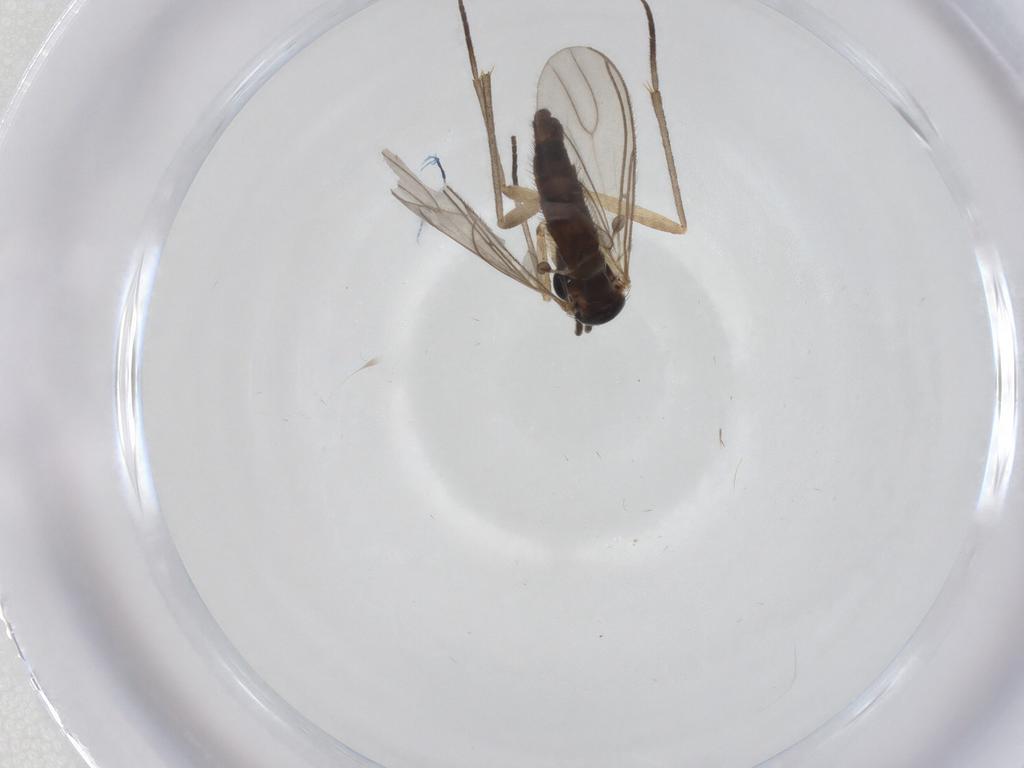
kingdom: Animalia
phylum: Arthropoda
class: Insecta
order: Diptera
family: Sciaridae
